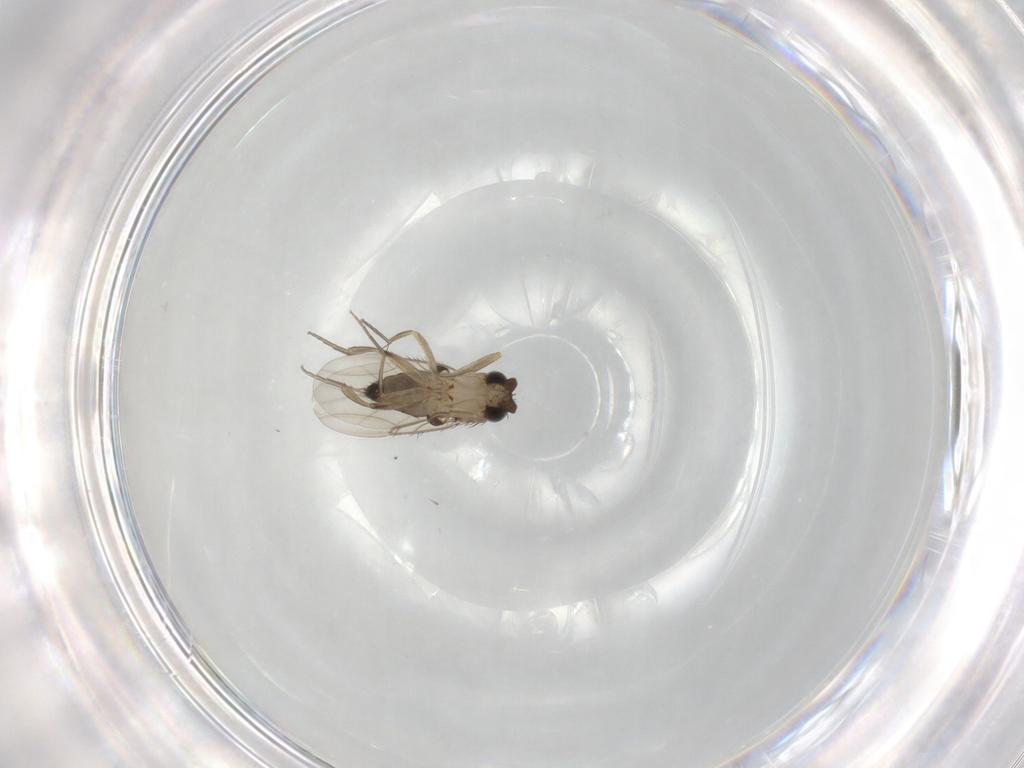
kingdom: Animalia
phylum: Arthropoda
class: Insecta
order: Diptera
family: Phoridae
